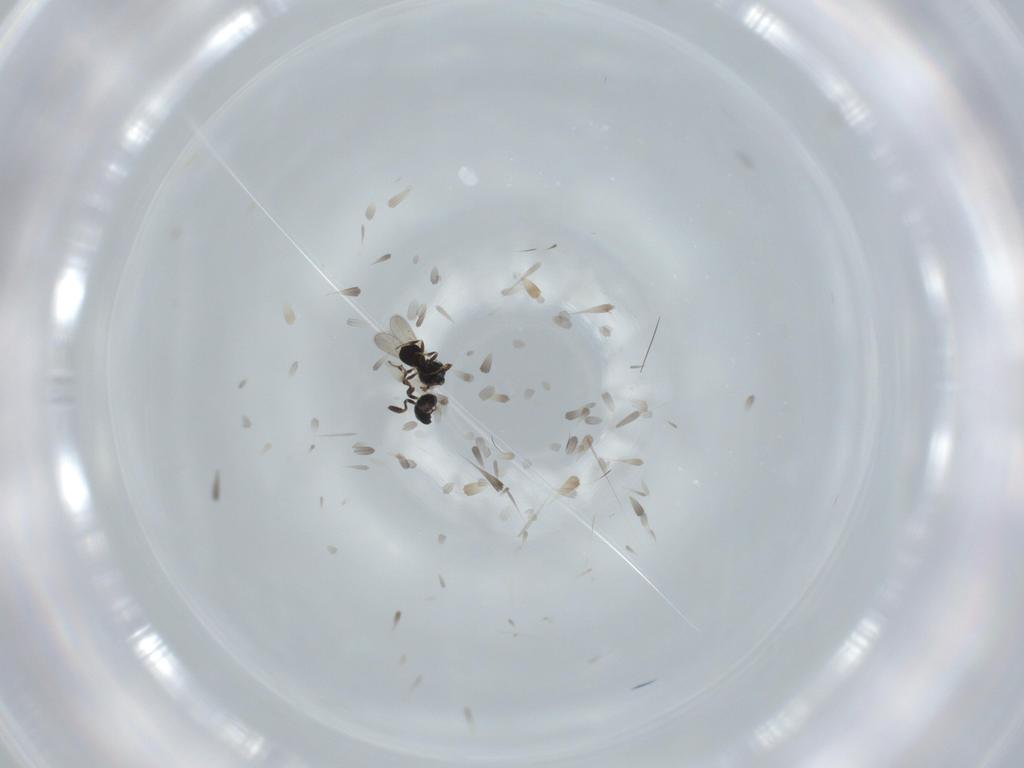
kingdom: Animalia
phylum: Arthropoda
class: Insecta
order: Hymenoptera
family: Scelionidae
